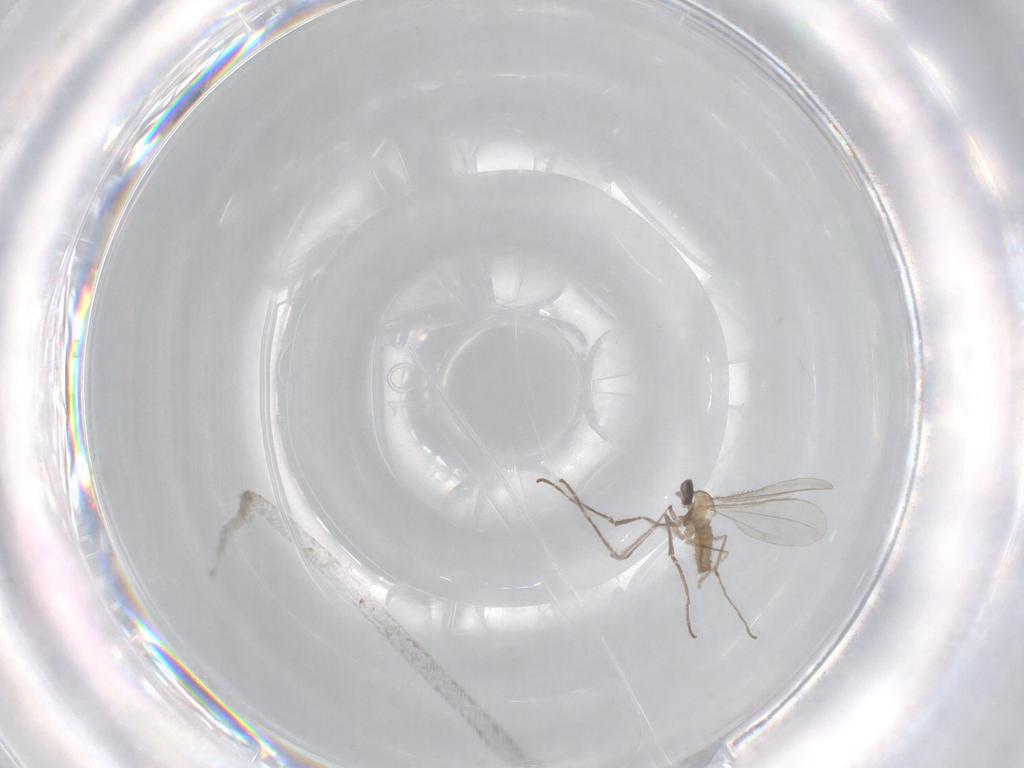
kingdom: Animalia
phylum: Arthropoda
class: Insecta
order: Diptera
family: Cecidomyiidae
